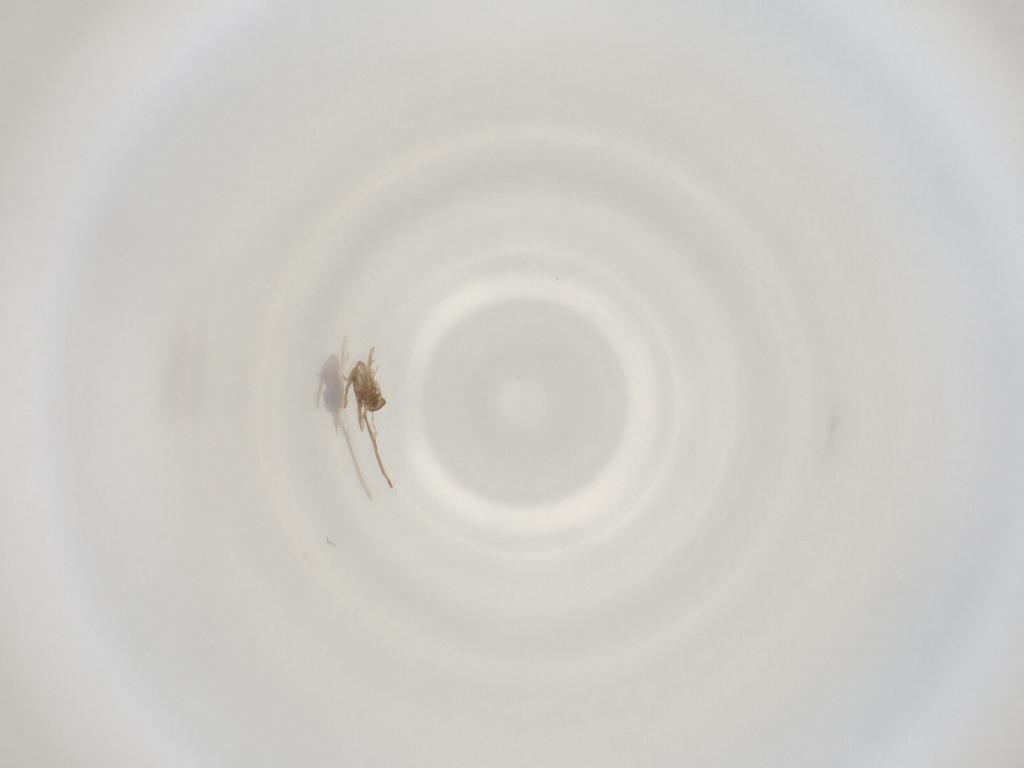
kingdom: Animalia
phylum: Arthropoda
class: Insecta
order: Diptera
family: Cecidomyiidae
